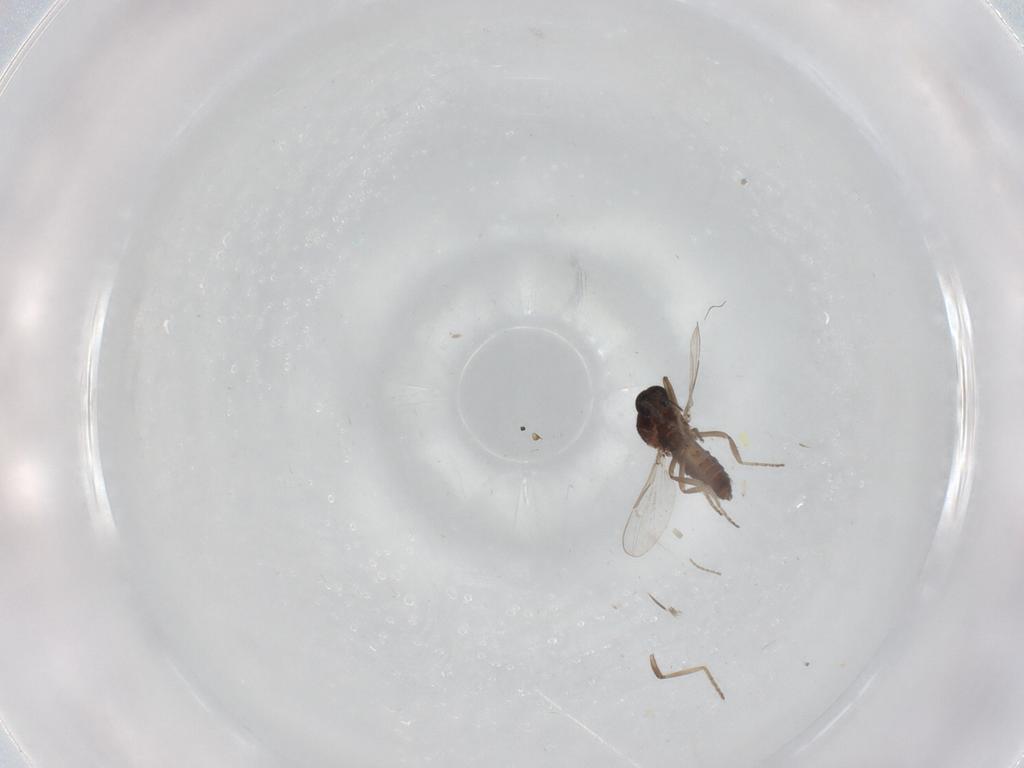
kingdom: Animalia
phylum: Arthropoda
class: Insecta
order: Diptera
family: Ceratopogonidae
